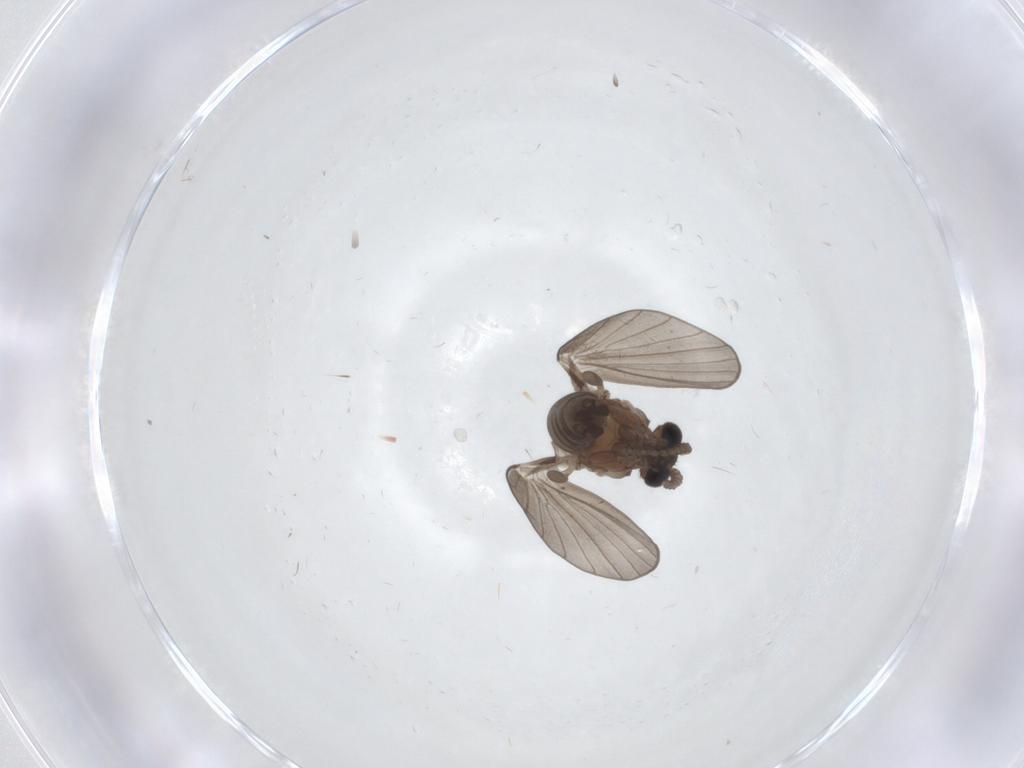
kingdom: Animalia
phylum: Arthropoda
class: Insecta
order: Diptera
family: Psychodidae
